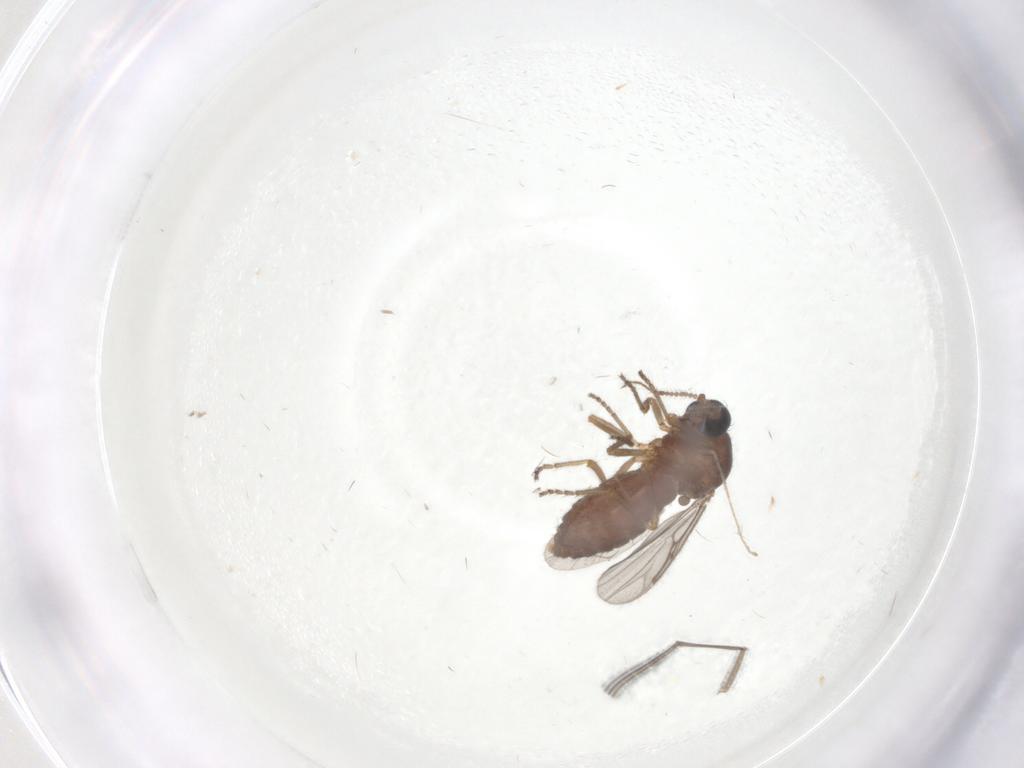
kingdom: Animalia
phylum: Arthropoda
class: Insecta
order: Diptera
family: Ceratopogonidae
